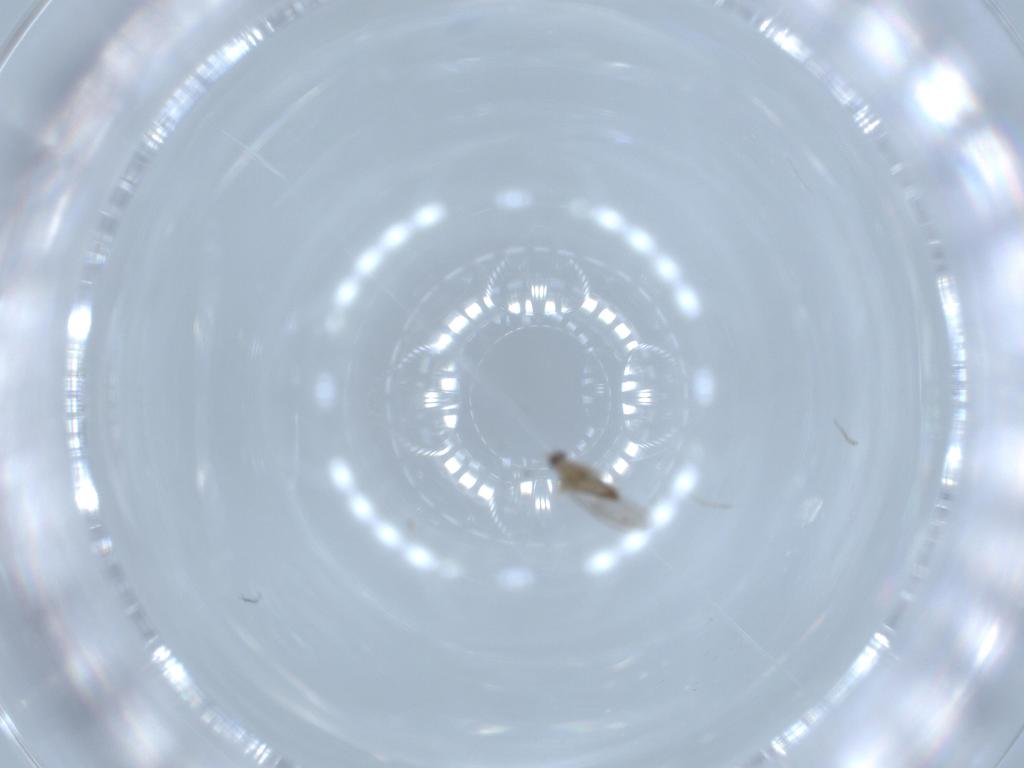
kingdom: Animalia
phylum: Arthropoda
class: Insecta
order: Diptera
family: Cecidomyiidae
